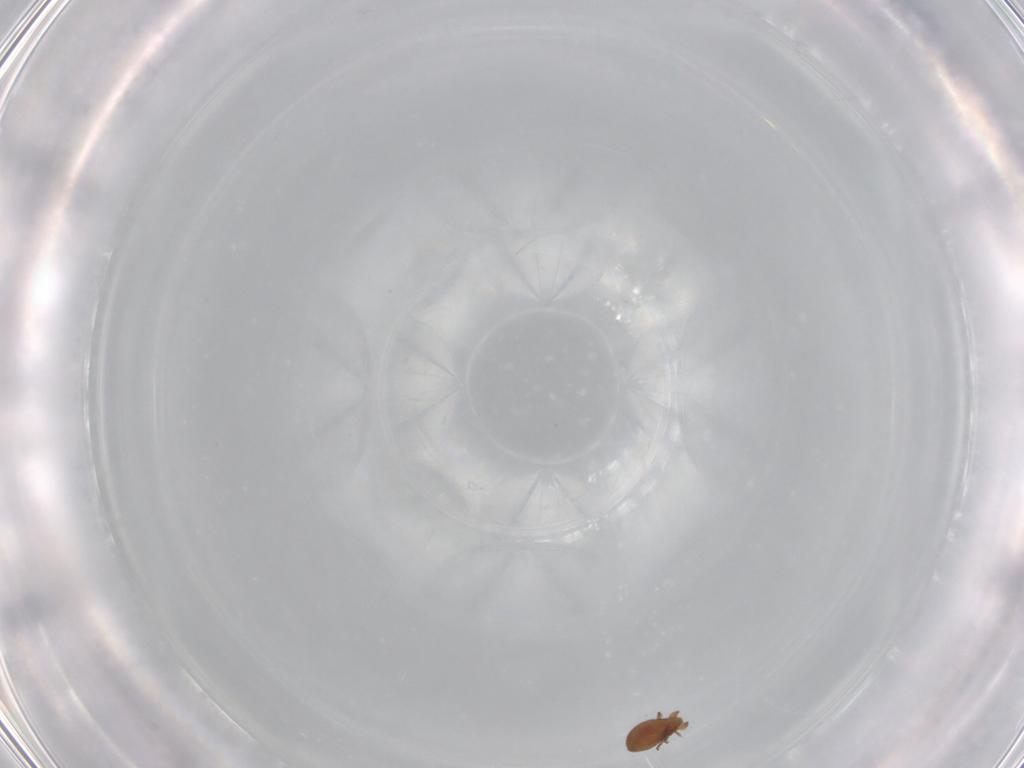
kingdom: Animalia
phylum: Arthropoda
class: Arachnida
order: Sarcoptiformes
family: Oribatulidae
